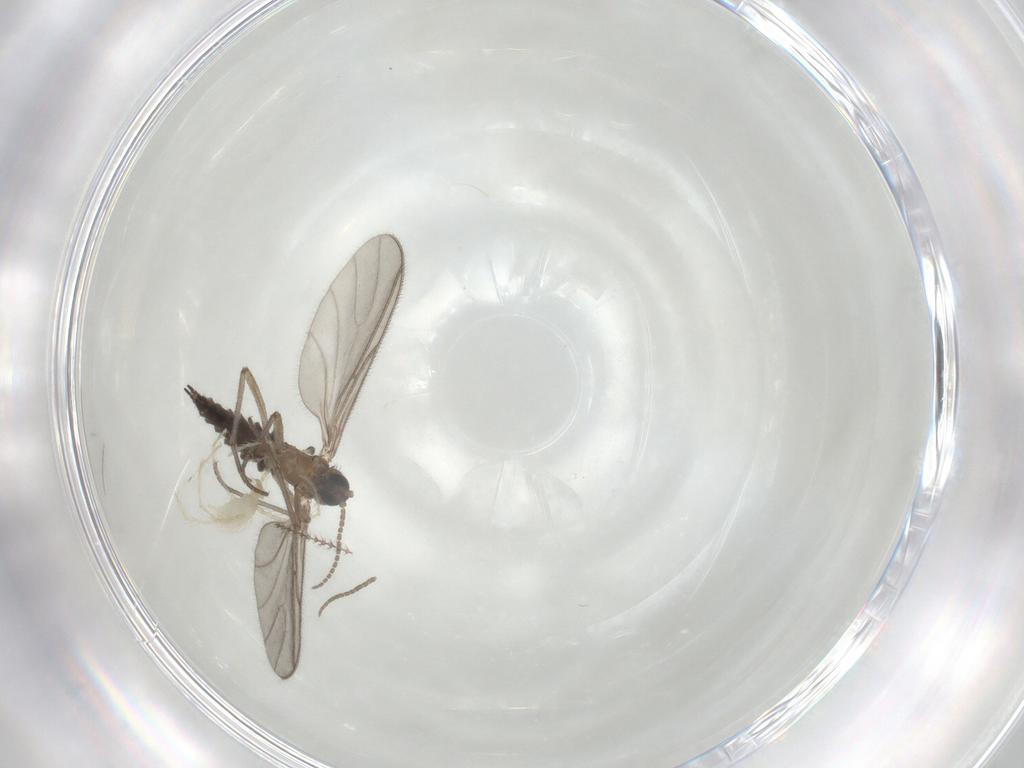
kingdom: Animalia
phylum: Arthropoda
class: Insecta
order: Diptera
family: Sciaridae
